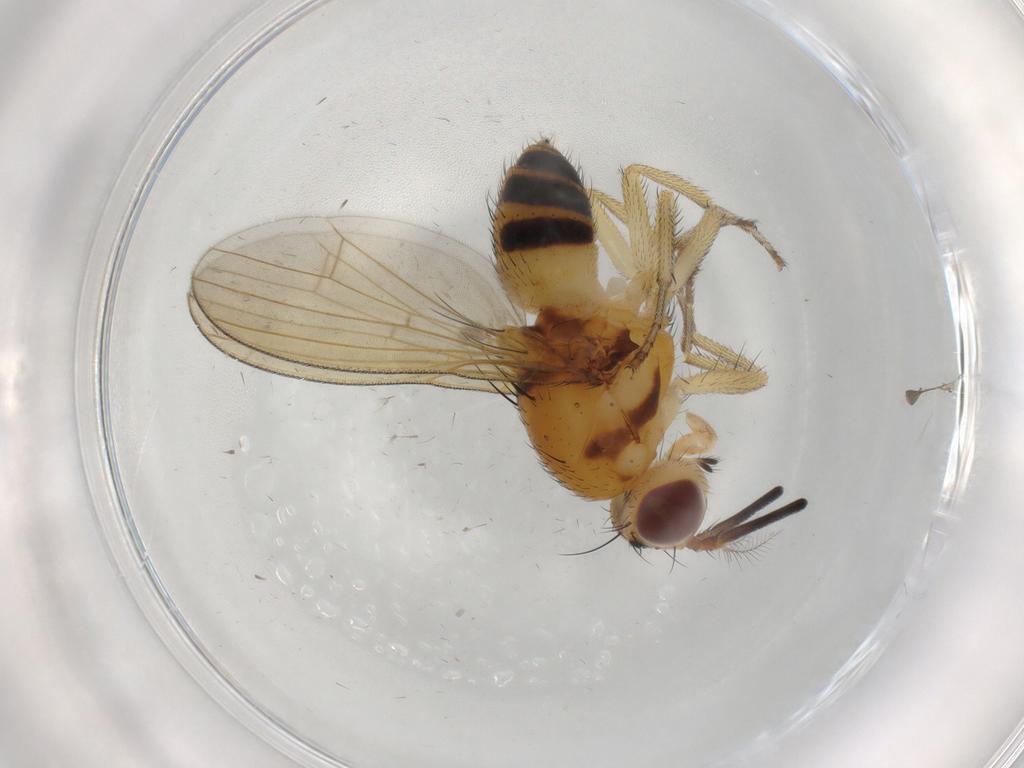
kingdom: Animalia
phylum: Arthropoda
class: Insecta
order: Diptera
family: Lauxaniidae
